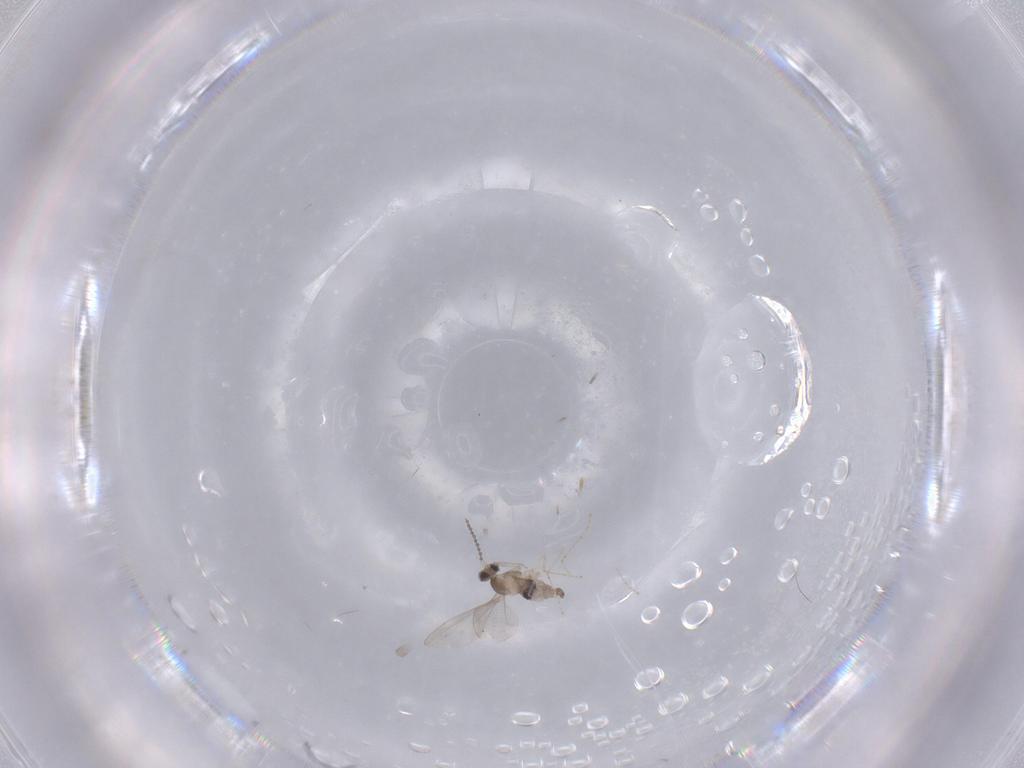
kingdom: Animalia
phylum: Arthropoda
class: Insecta
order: Diptera
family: Cecidomyiidae
